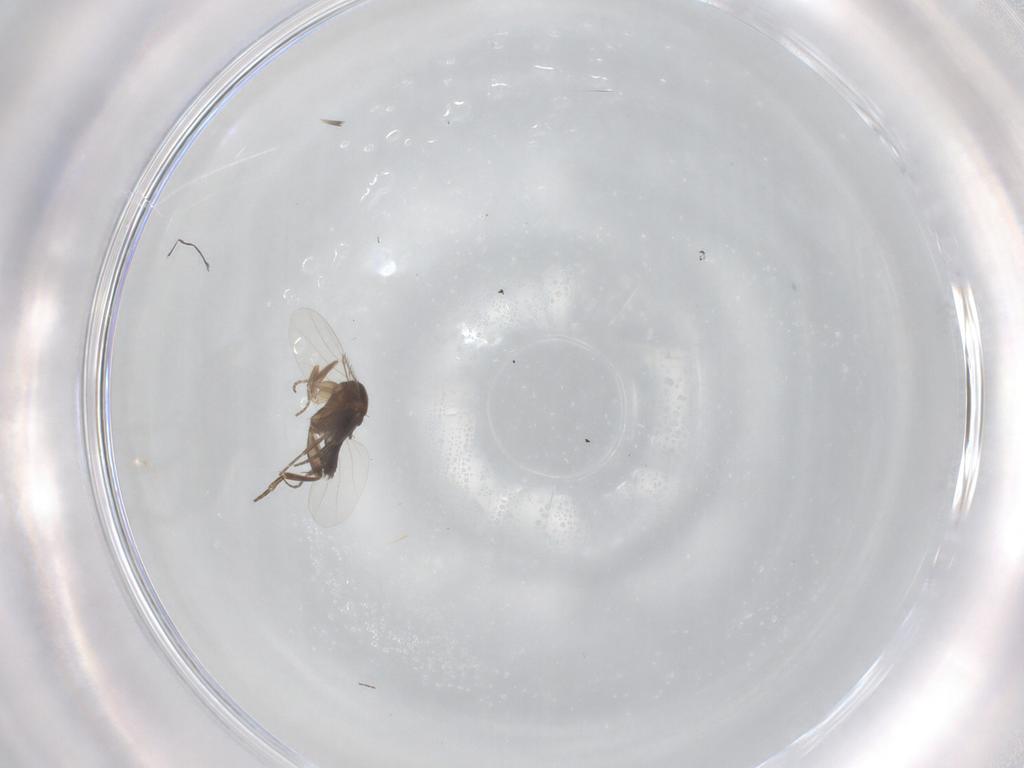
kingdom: Animalia
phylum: Arthropoda
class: Insecta
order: Diptera
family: Phoridae
